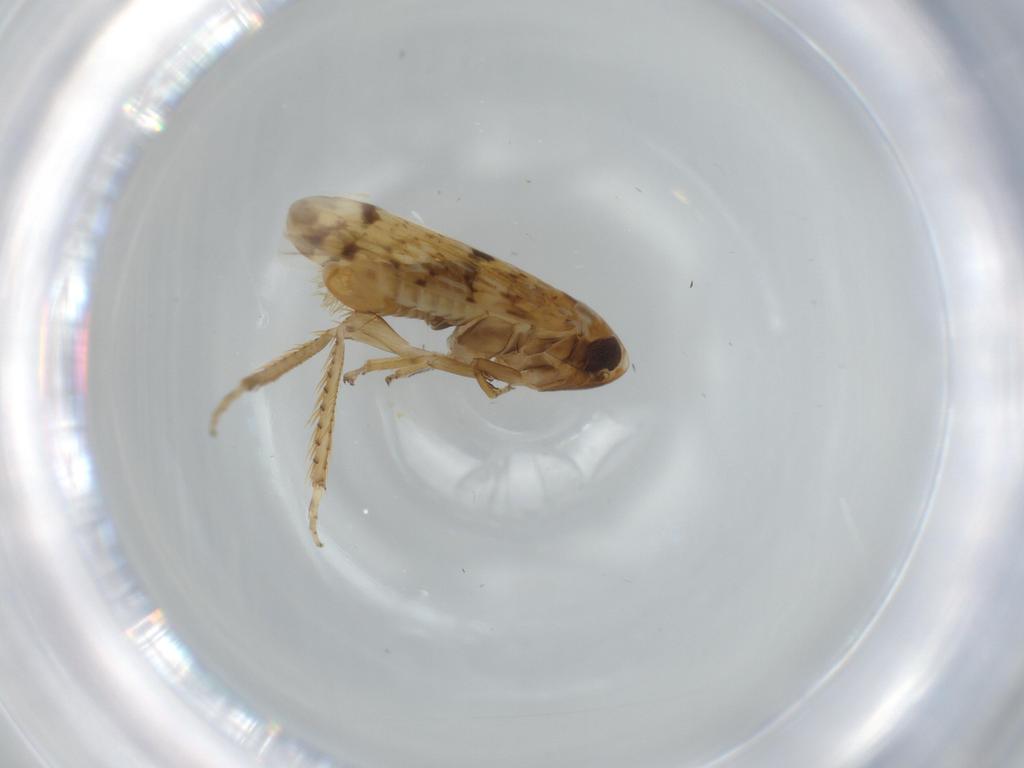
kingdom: Animalia
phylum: Arthropoda
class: Insecta
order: Hemiptera
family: Cicadellidae
